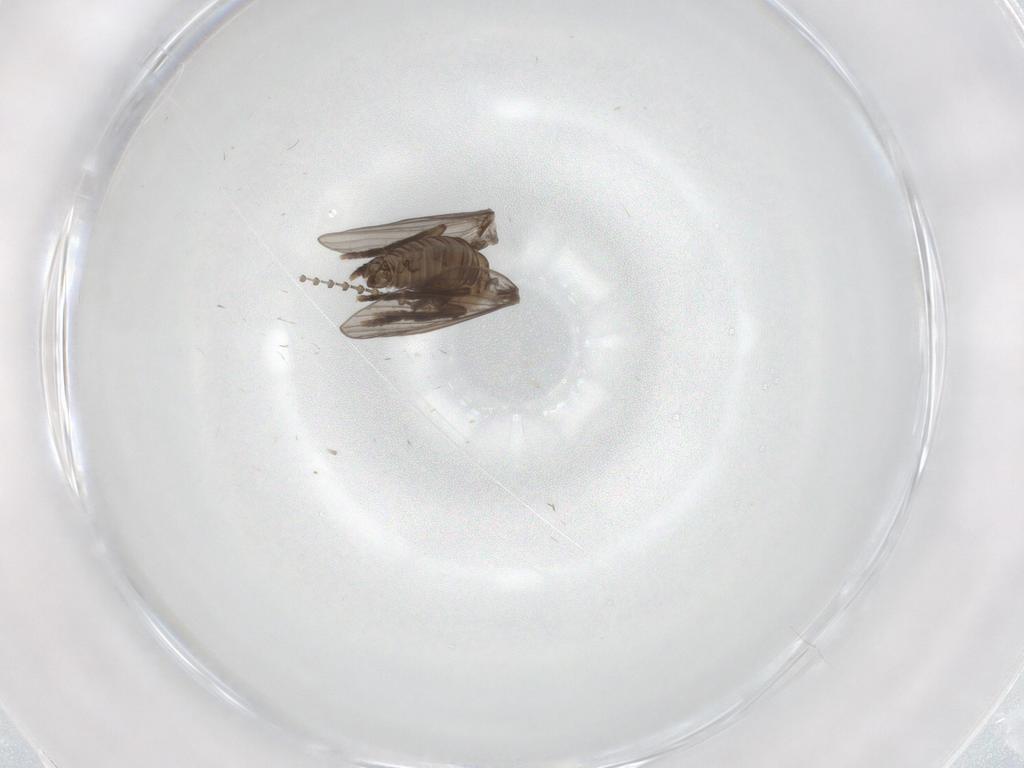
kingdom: Animalia
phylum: Arthropoda
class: Insecta
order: Diptera
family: Psychodidae
